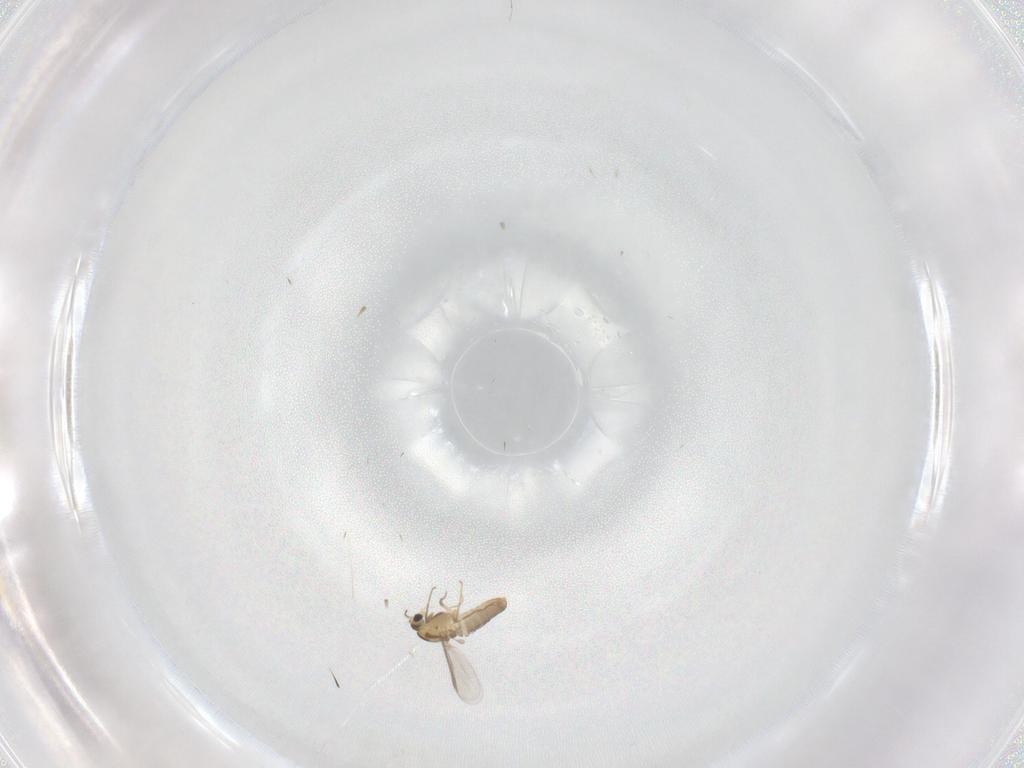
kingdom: Animalia
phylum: Arthropoda
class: Insecta
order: Diptera
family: Chironomidae
